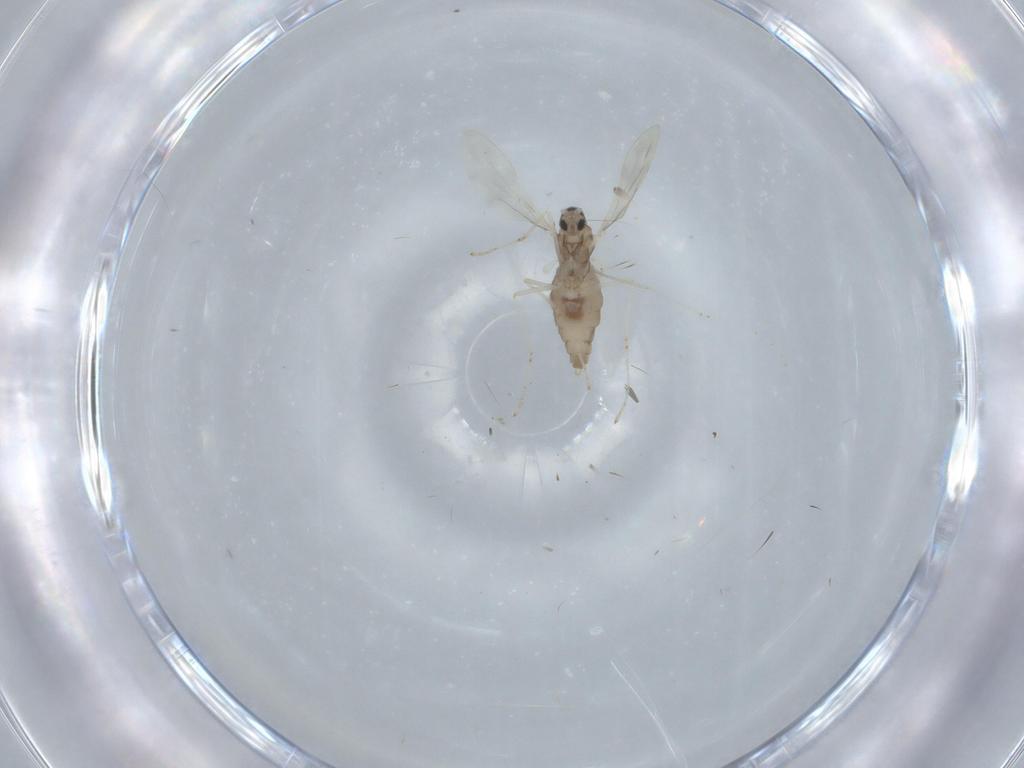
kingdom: Animalia
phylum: Arthropoda
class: Insecta
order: Diptera
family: Cecidomyiidae
